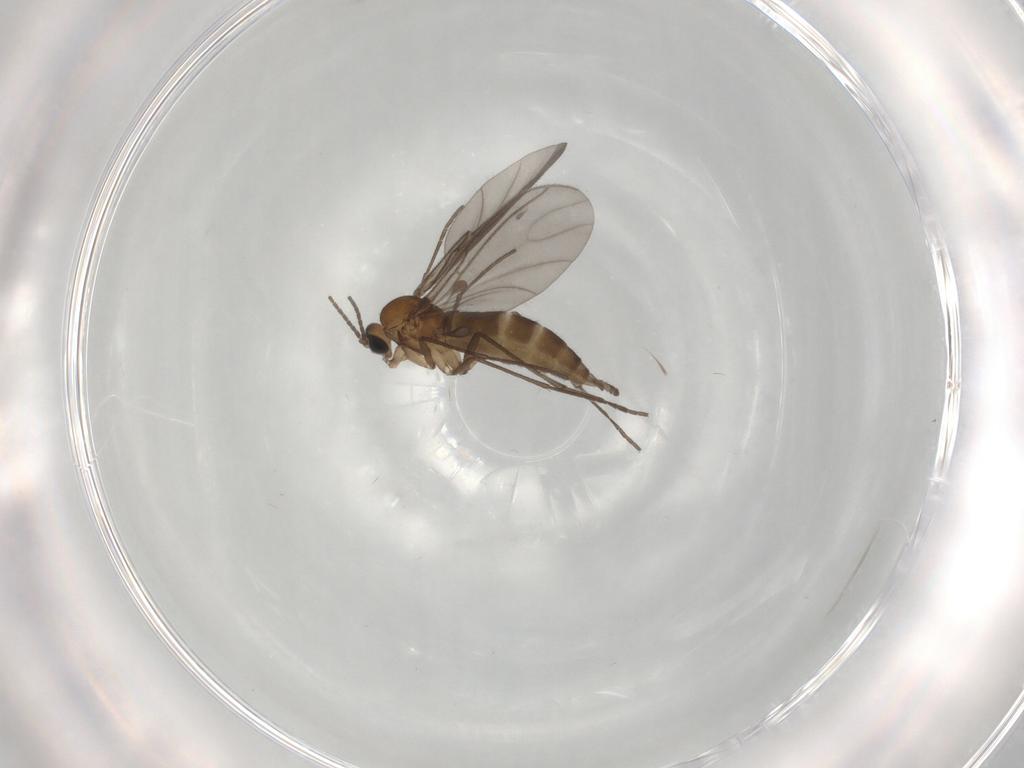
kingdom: Animalia
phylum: Arthropoda
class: Insecta
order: Diptera
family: Sciaridae
